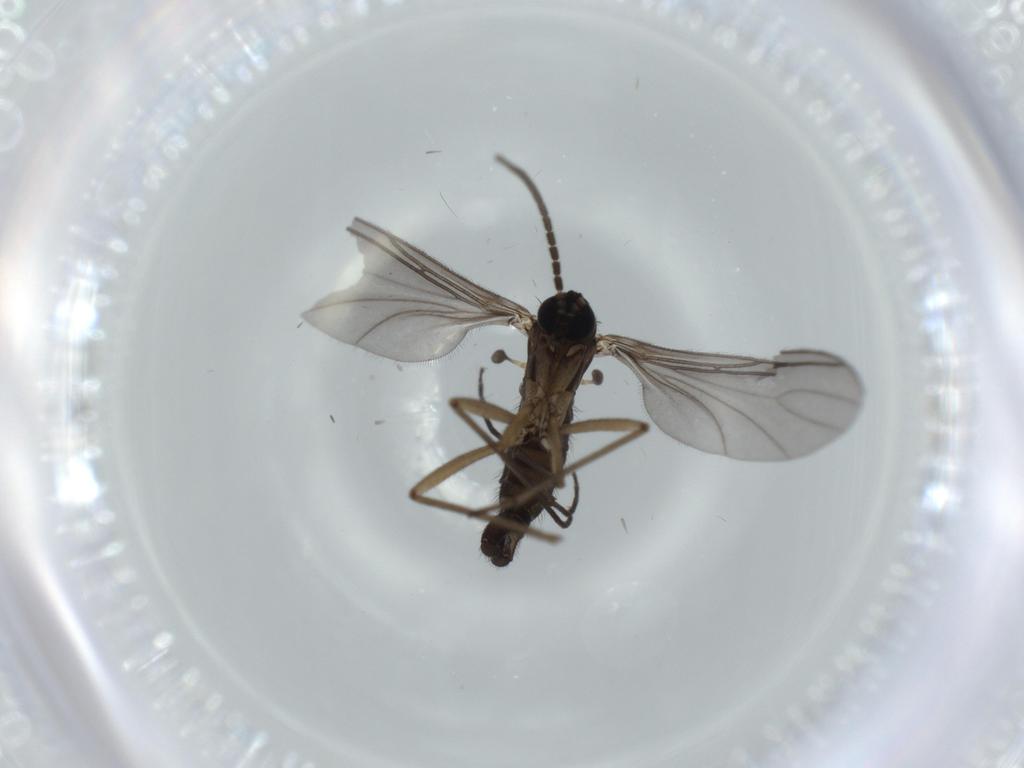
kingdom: Animalia
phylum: Arthropoda
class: Insecta
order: Diptera
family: Sciaridae
